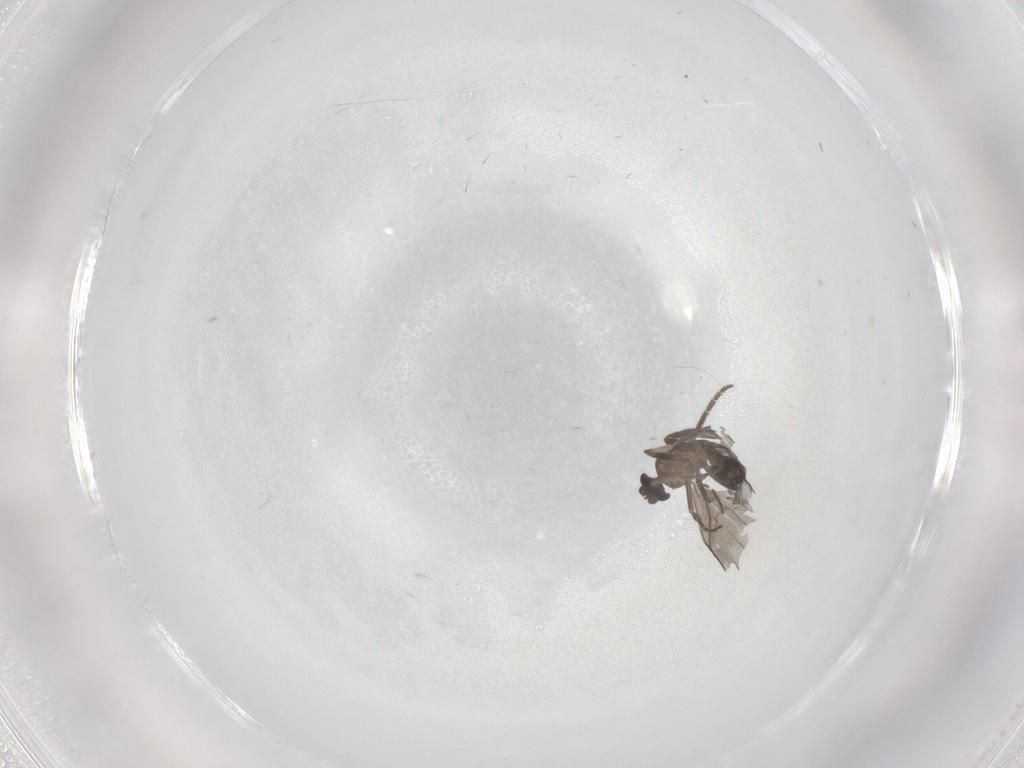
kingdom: Animalia
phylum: Arthropoda
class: Insecta
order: Diptera
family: Phoridae
